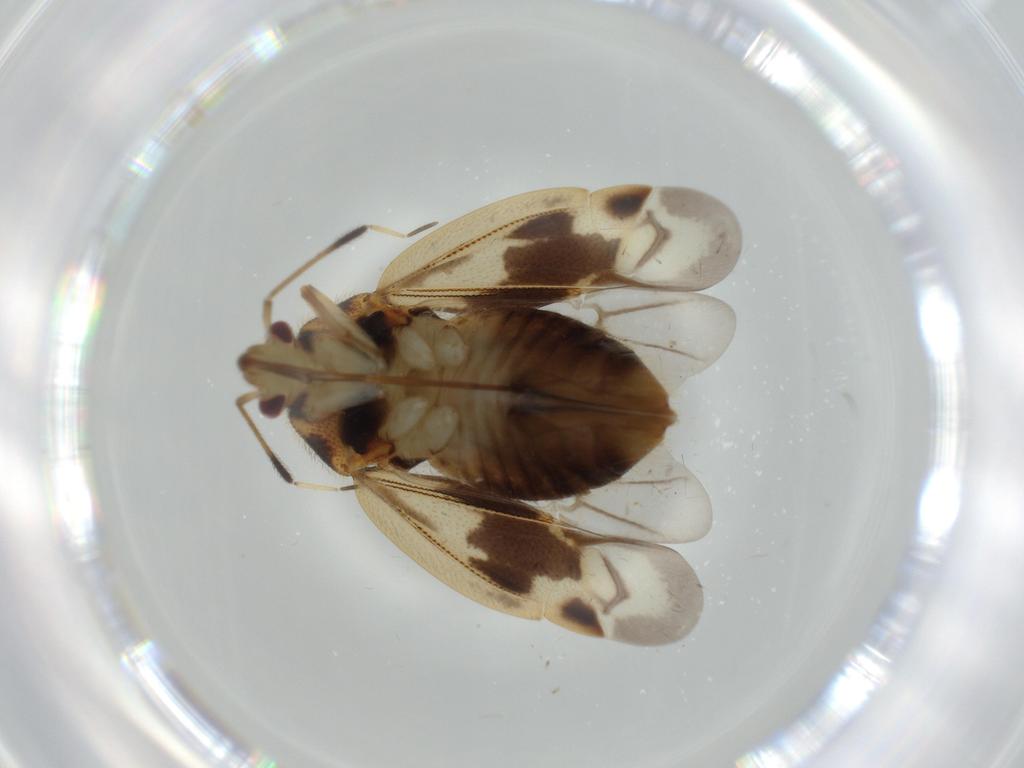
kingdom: Animalia
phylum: Arthropoda
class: Insecta
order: Hemiptera
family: Miridae
